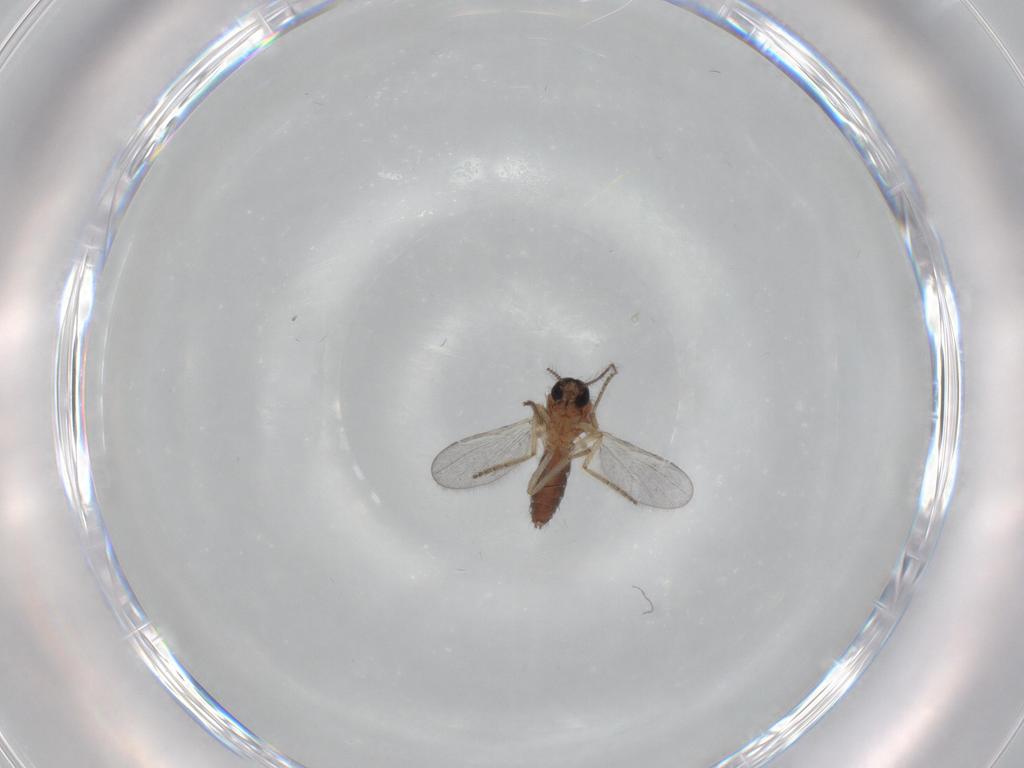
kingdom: Animalia
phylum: Arthropoda
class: Insecta
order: Diptera
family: Ceratopogonidae
